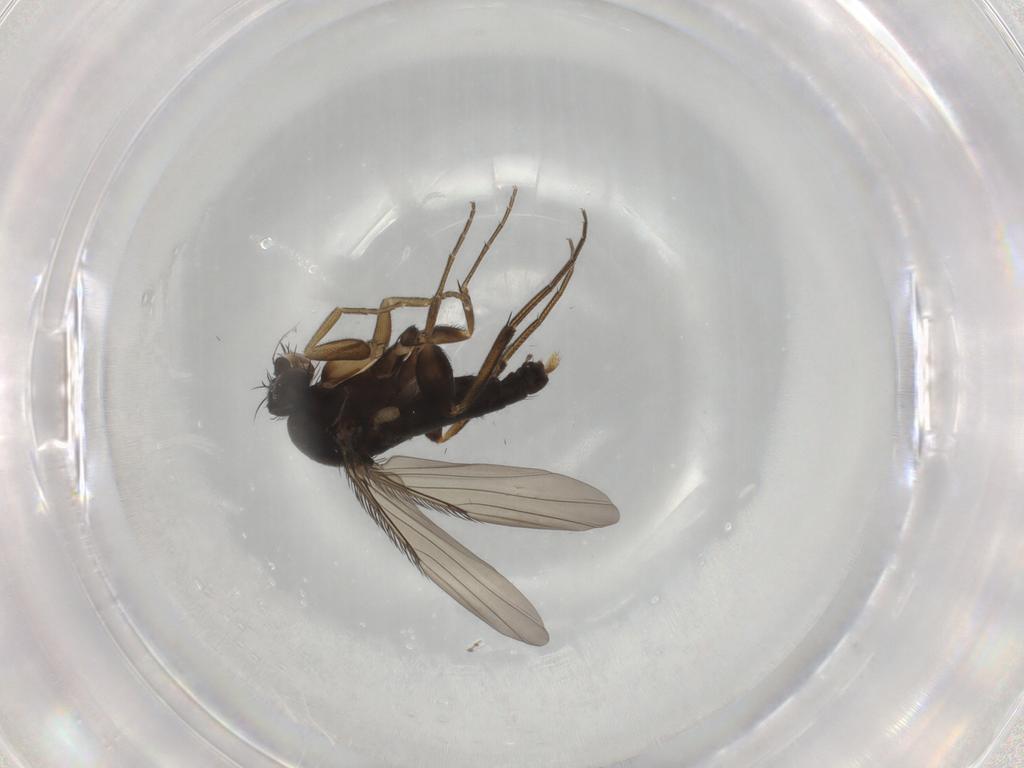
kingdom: Animalia
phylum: Arthropoda
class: Insecta
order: Diptera
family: Phoridae
